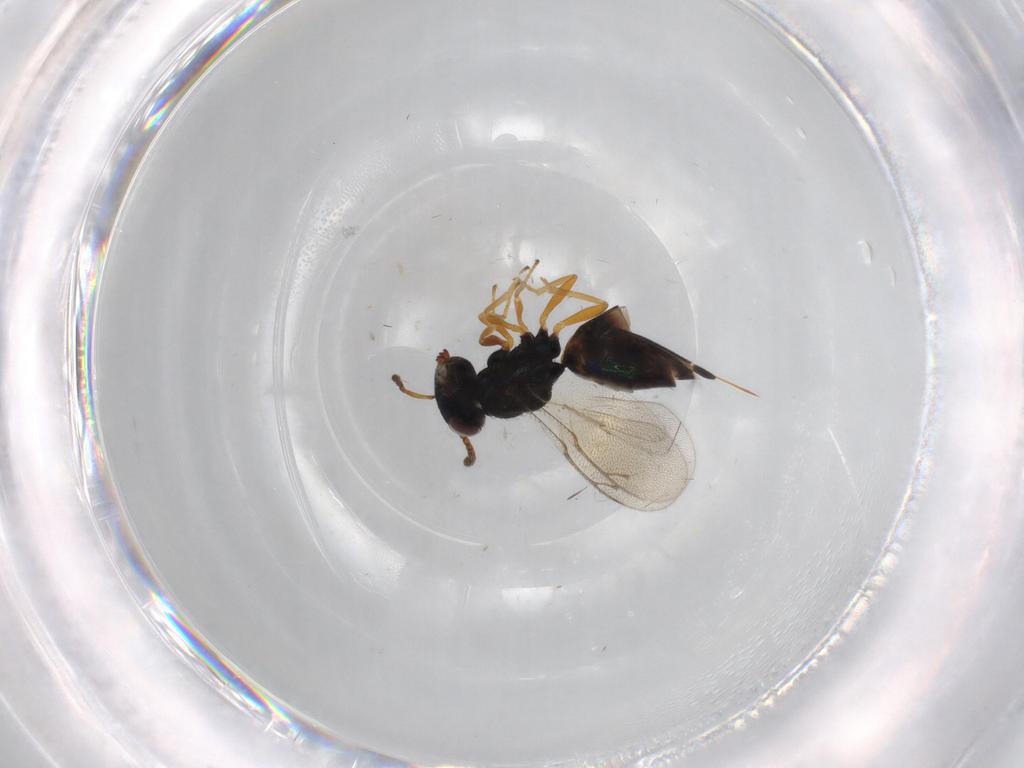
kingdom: Animalia
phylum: Arthropoda
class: Insecta
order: Hymenoptera
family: Pteromalidae
